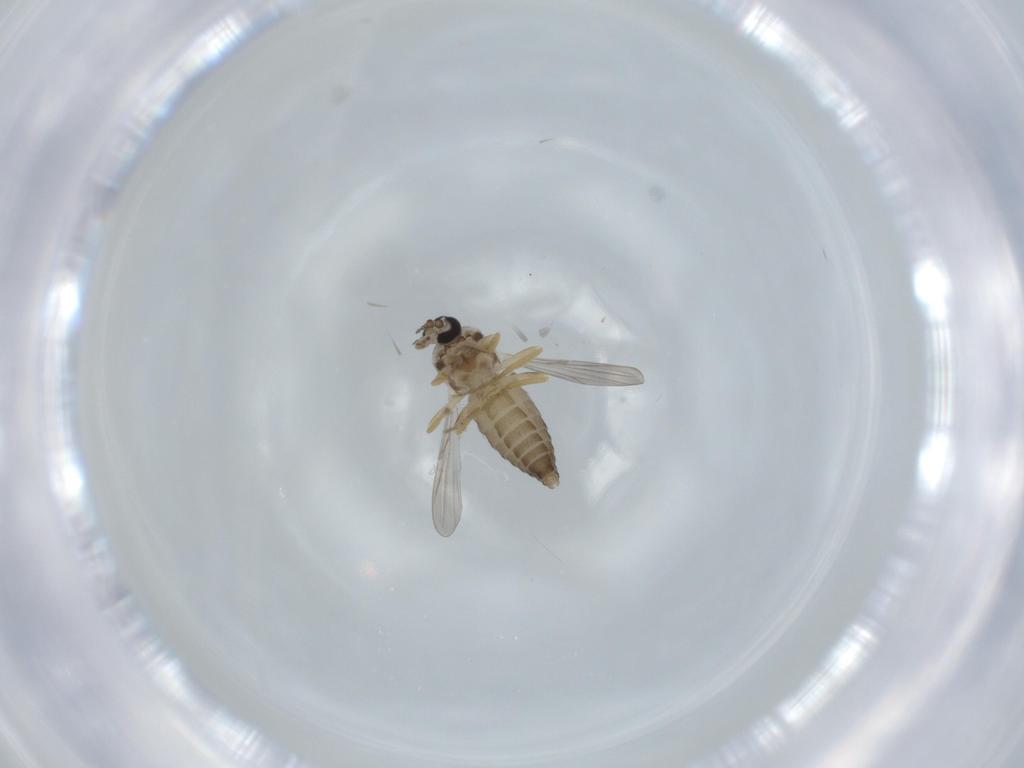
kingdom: Animalia
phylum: Arthropoda
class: Insecta
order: Diptera
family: Ceratopogonidae
